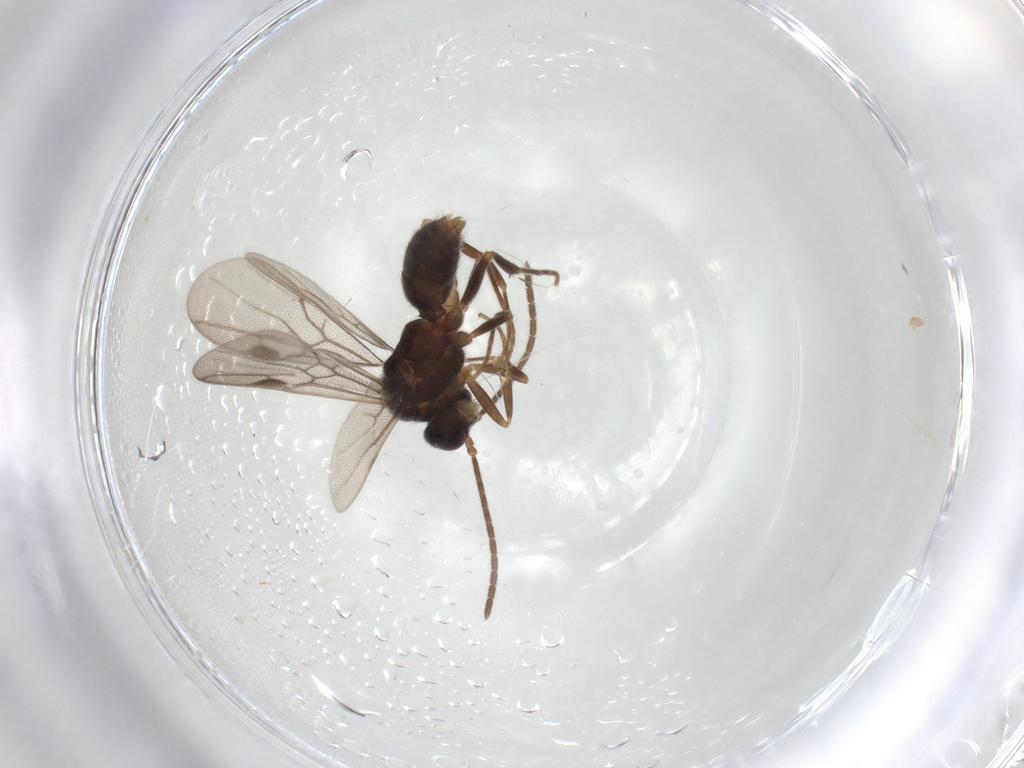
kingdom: Animalia
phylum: Arthropoda
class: Insecta
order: Hymenoptera
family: Formicidae
